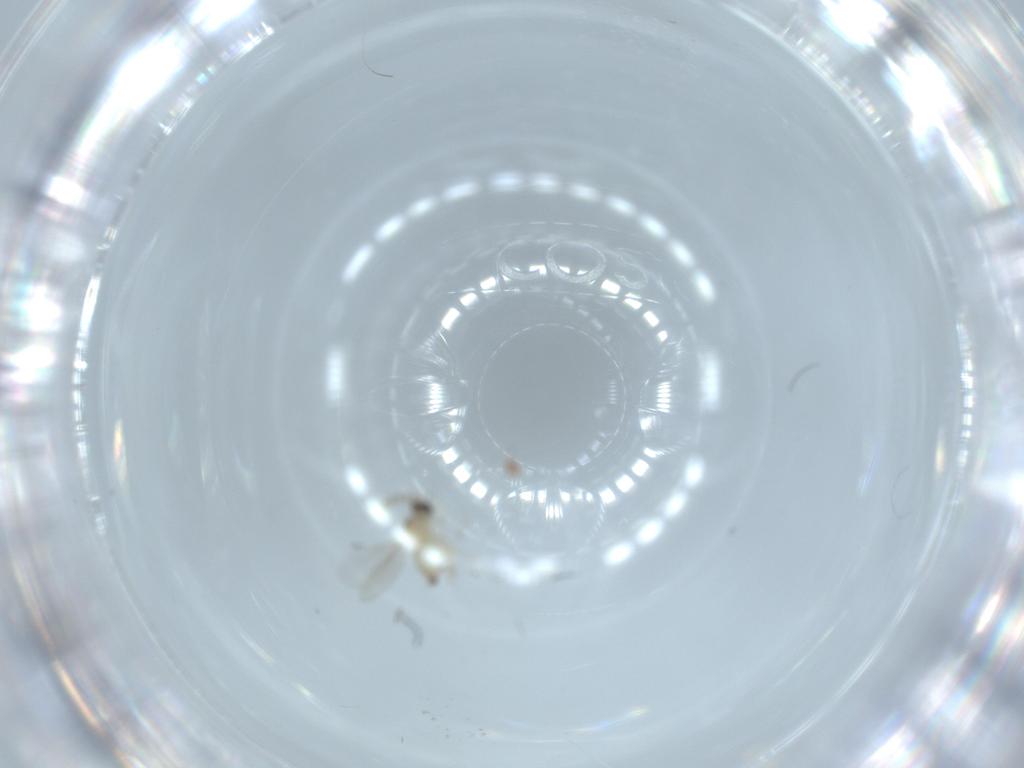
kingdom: Animalia
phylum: Arthropoda
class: Insecta
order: Diptera
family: Cecidomyiidae
